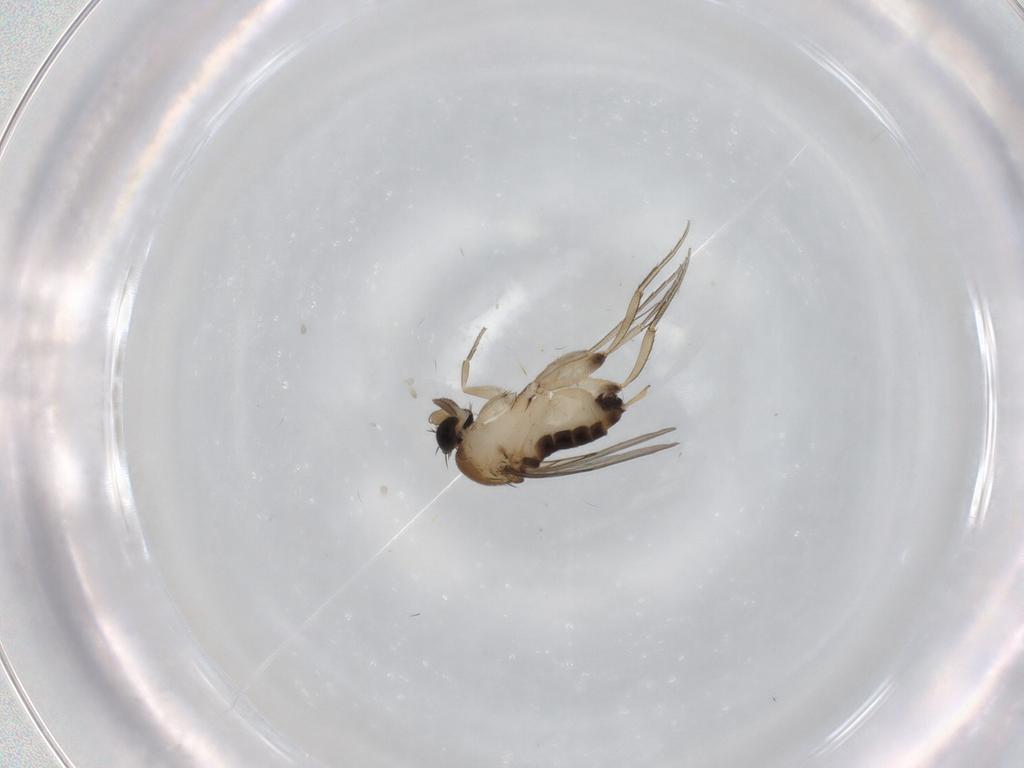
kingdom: Animalia
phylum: Arthropoda
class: Insecta
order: Diptera
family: Phoridae
